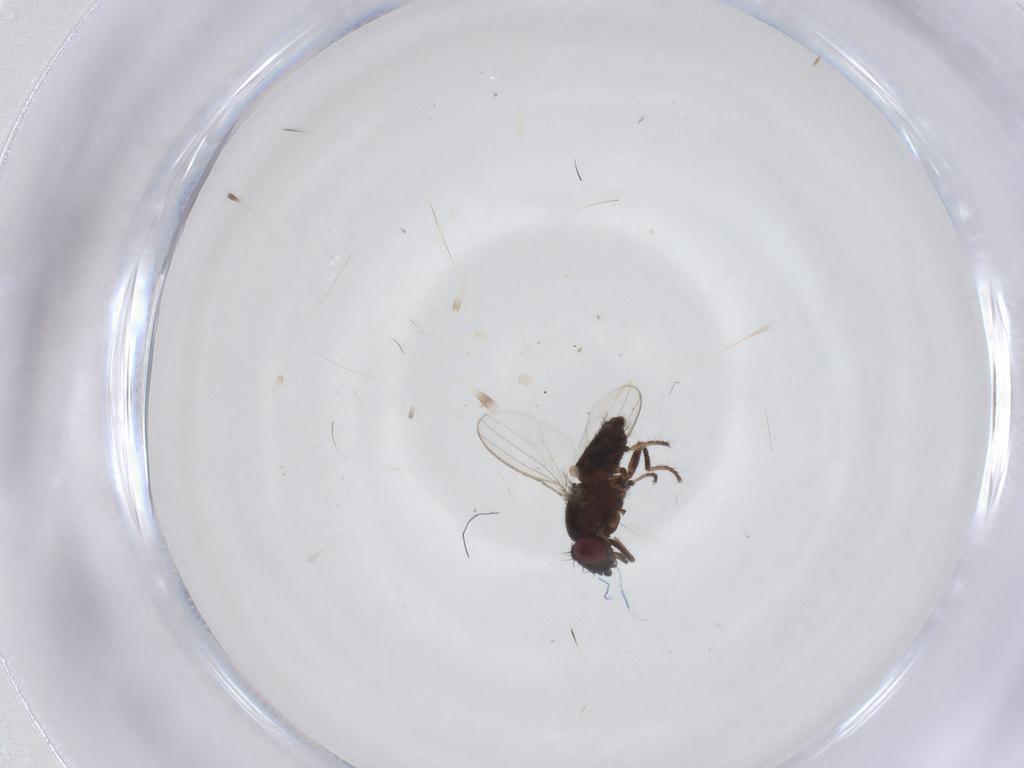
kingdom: Animalia
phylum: Arthropoda
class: Insecta
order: Diptera
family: Milichiidae
